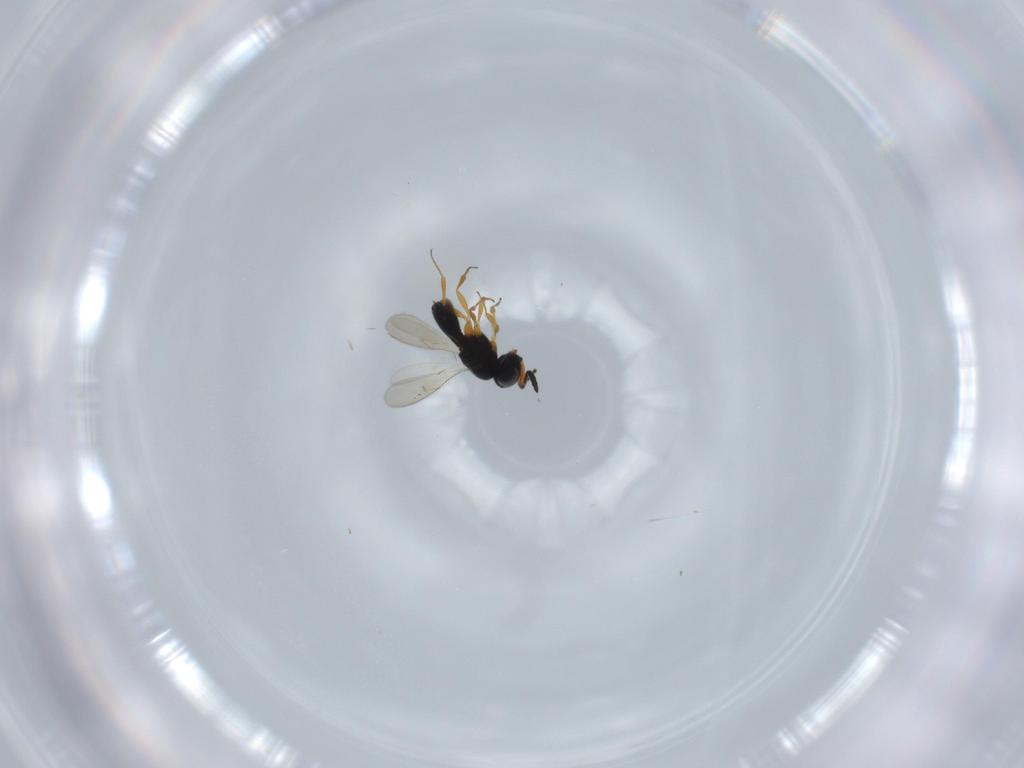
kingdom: Animalia
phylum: Arthropoda
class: Insecta
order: Hymenoptera
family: Scelionidae
